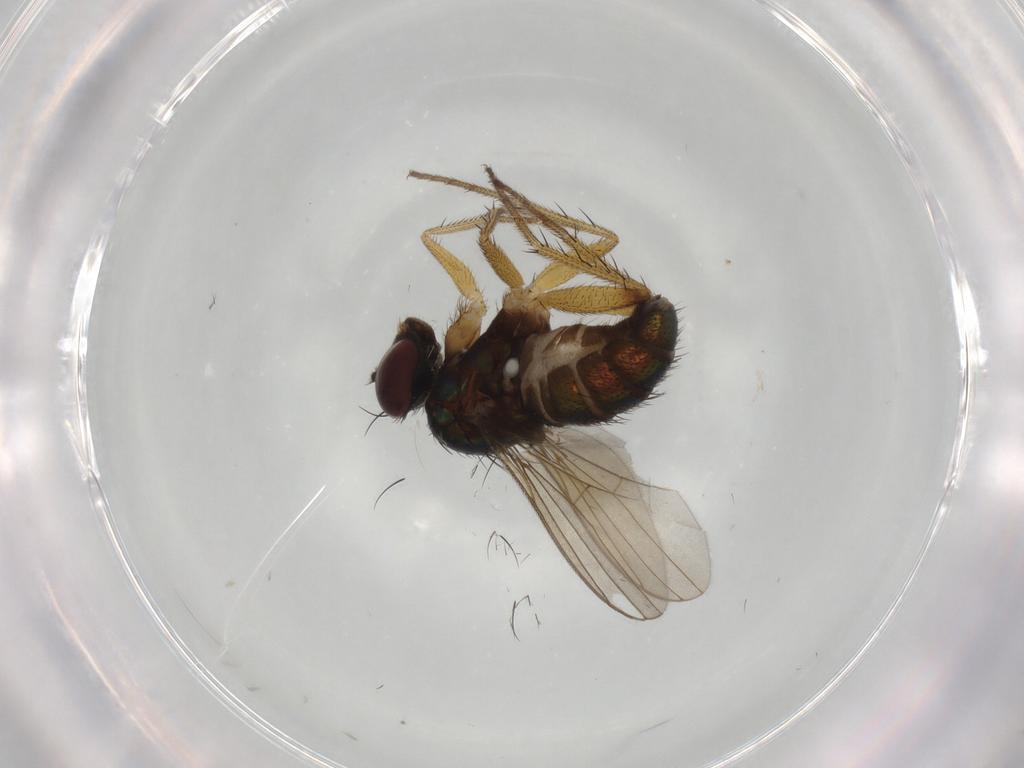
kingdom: Animalia
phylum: Arthropoda
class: Insecta
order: Diptera
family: Dolichopodidae
